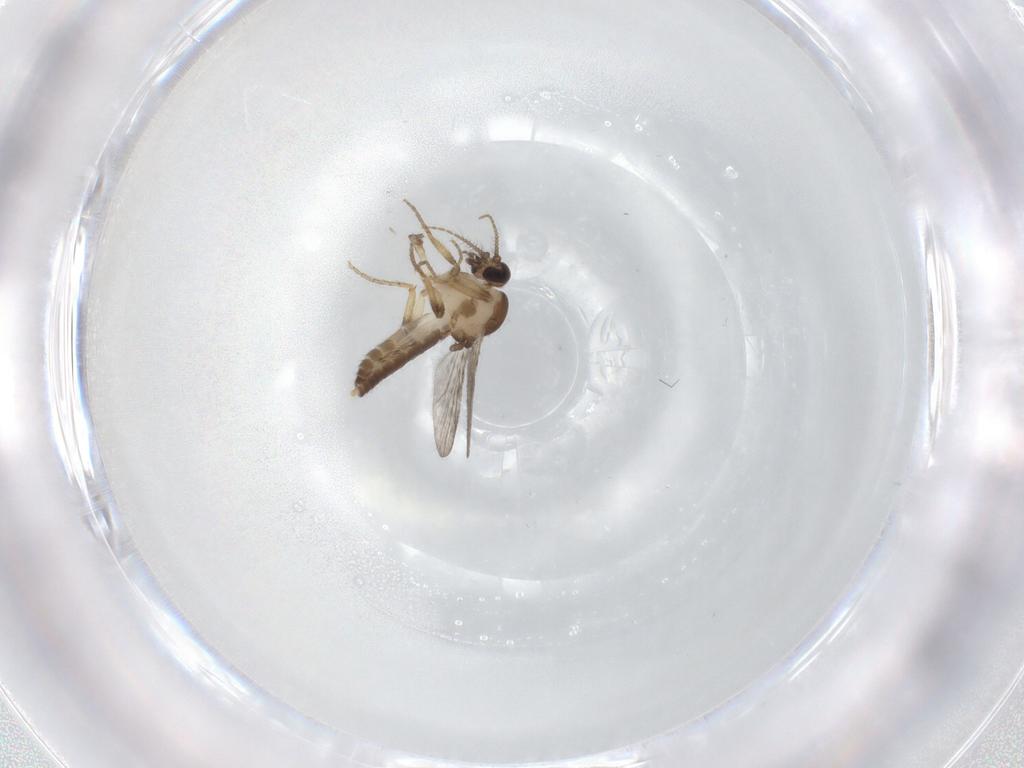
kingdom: Animalia
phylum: Arthropoda
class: Insecta
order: Diptera
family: Ceratopogonidae
